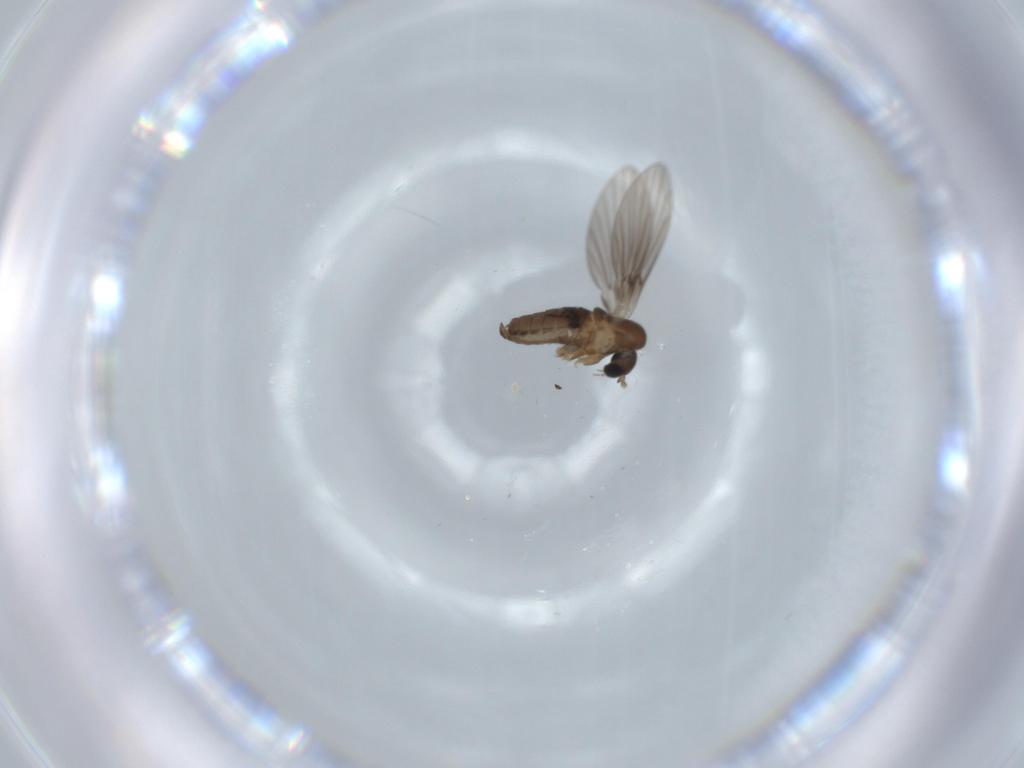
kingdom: Animalia
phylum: Arthropoda
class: Insecta
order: Diptera
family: Psychodidae
